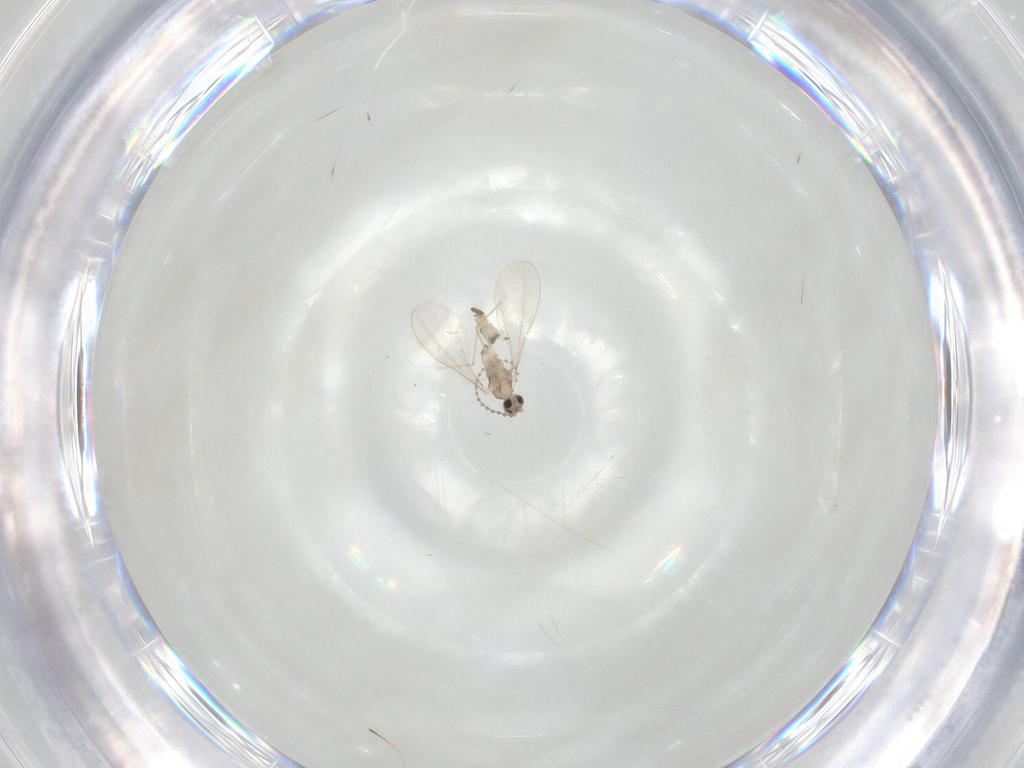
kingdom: Animalia
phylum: Arthropoda
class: Insecta
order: Diptera
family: Cecidomyiidae
